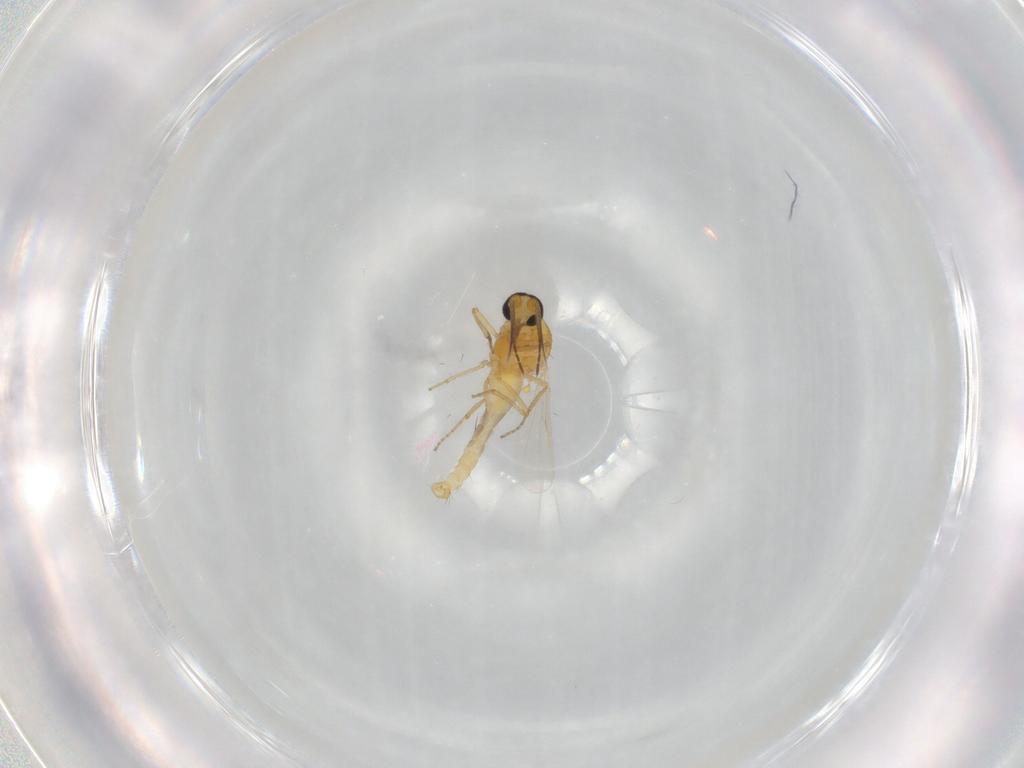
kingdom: Animalia
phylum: Arthropoda
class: Insecta
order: Diptera
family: Ceratopogonidae
